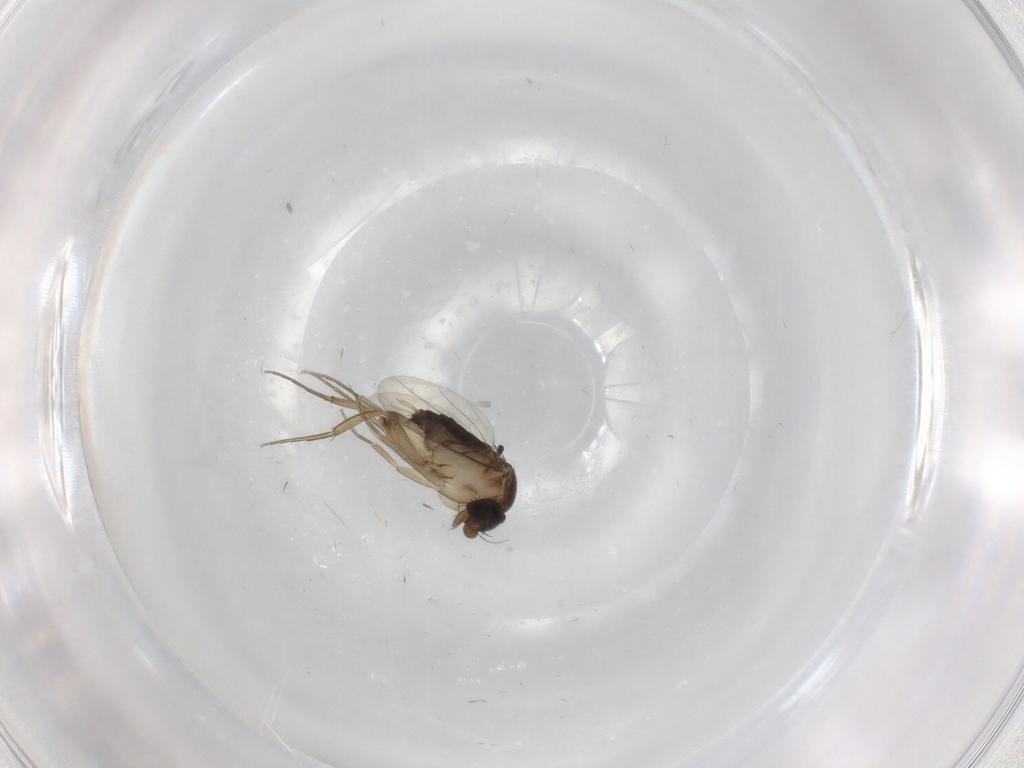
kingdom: Animalia
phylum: Arthropoda
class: Insecta
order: Diptera
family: Phoridae
